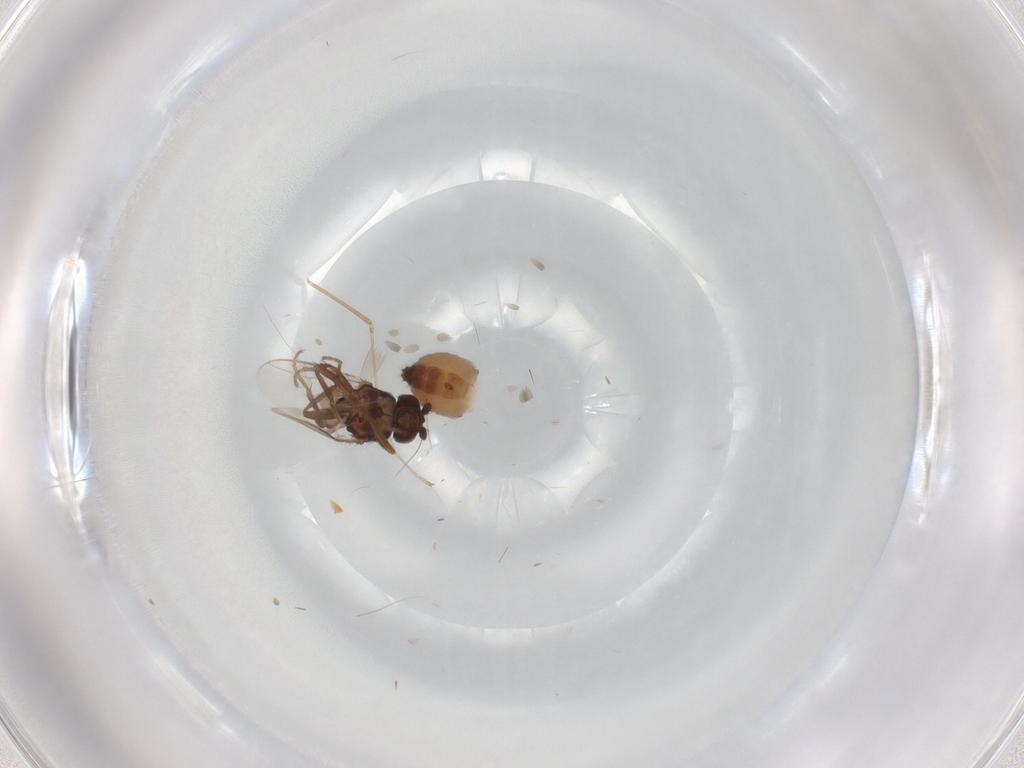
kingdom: Animalia
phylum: Arthropoda
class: Insecta
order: Diptera
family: Sphaeroceridae
